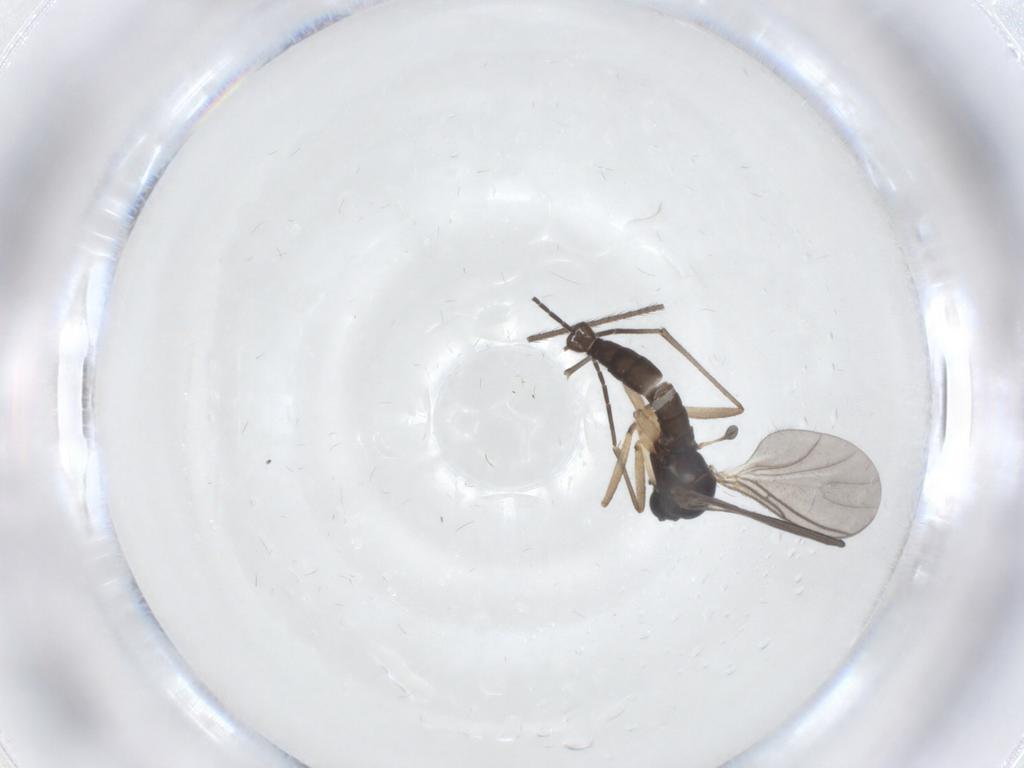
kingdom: Animalia
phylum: Arthropoda
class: Insecta
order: Diptera
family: Sciaridae
